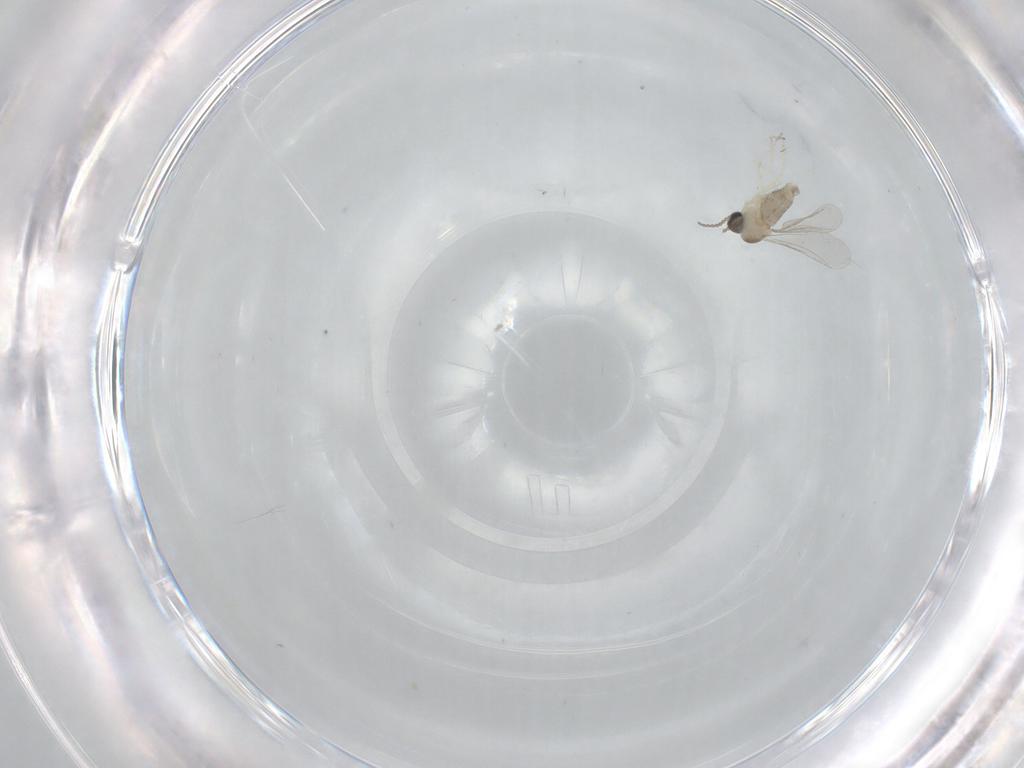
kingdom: Animalia
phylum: Arthropoda
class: Insecta
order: Diptera
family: Cecidomyiidae
